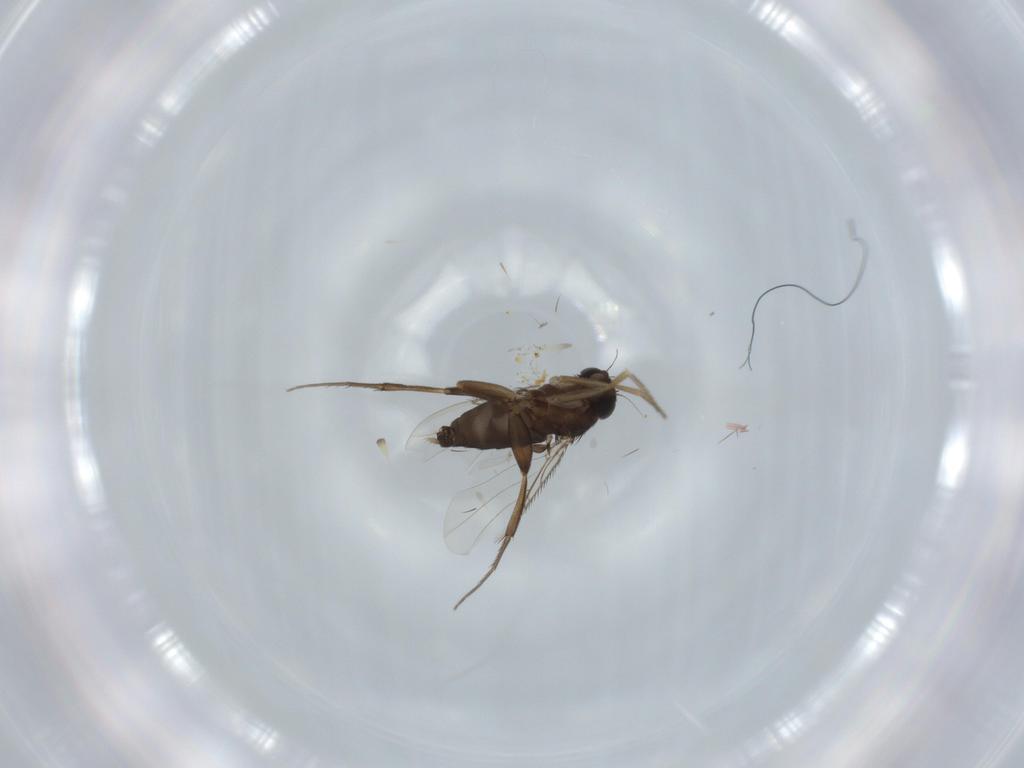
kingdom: Animalia
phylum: Arthropoda
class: Insecta
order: Diptera
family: Phoridae
